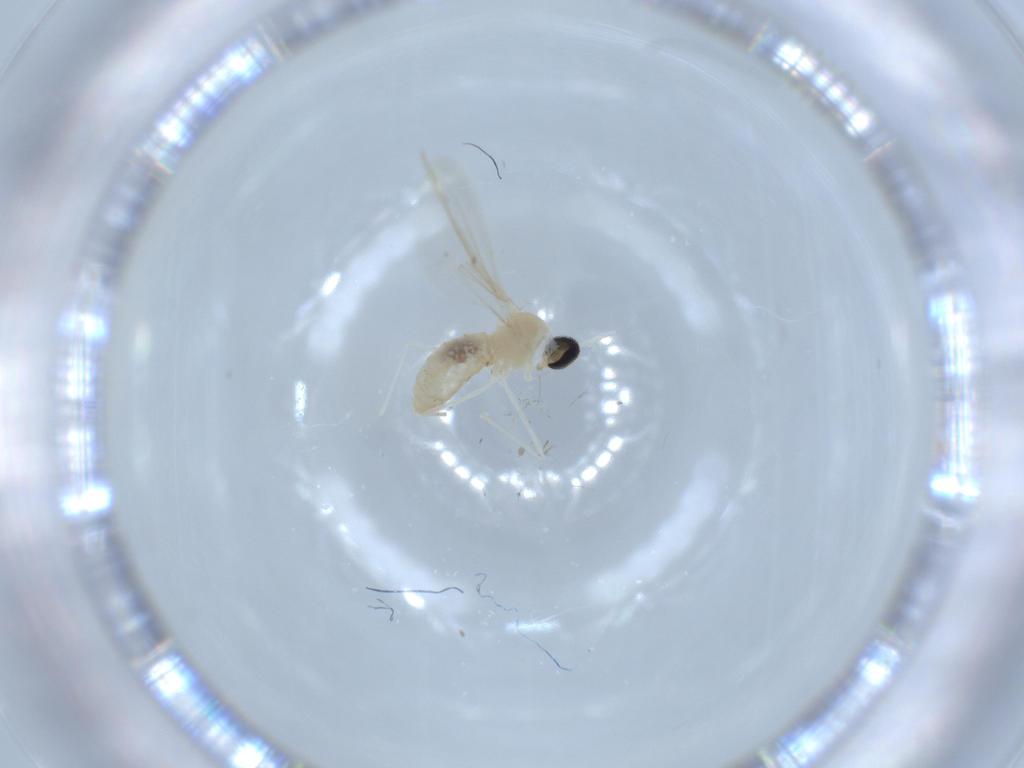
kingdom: Animalia
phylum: Arthropoda
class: Insecta
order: Diptera
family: Cecidomyiidae
